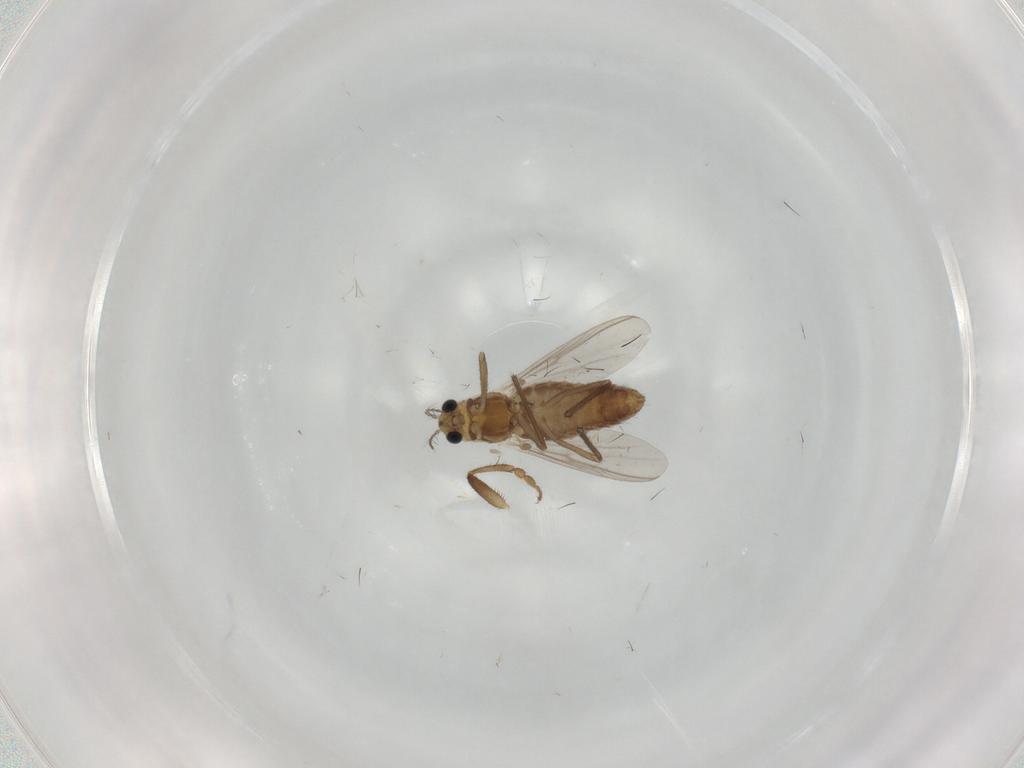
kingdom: Animalia
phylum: Arthropoda
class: Insecta
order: Diptera
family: Chironomidae
